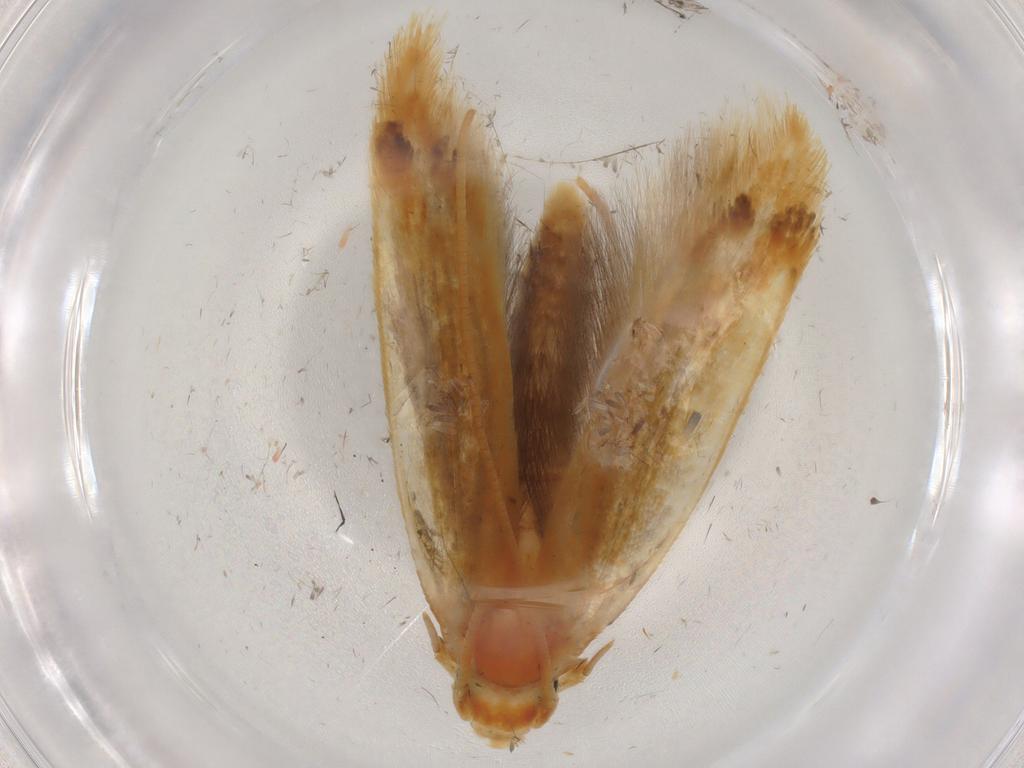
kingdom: Animalia
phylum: Arthropoda
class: Insecta
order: Lepidoptera
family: Tineidae
